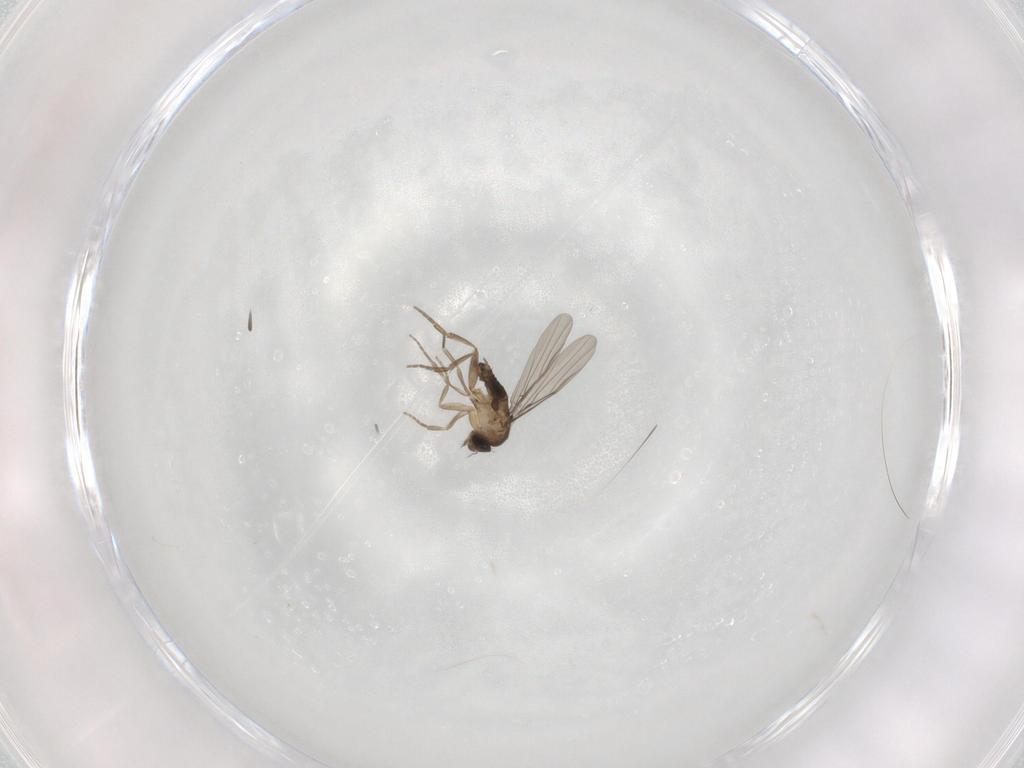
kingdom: Animalia
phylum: Arthropoda
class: Insecta
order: Diptera
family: Phoridae
